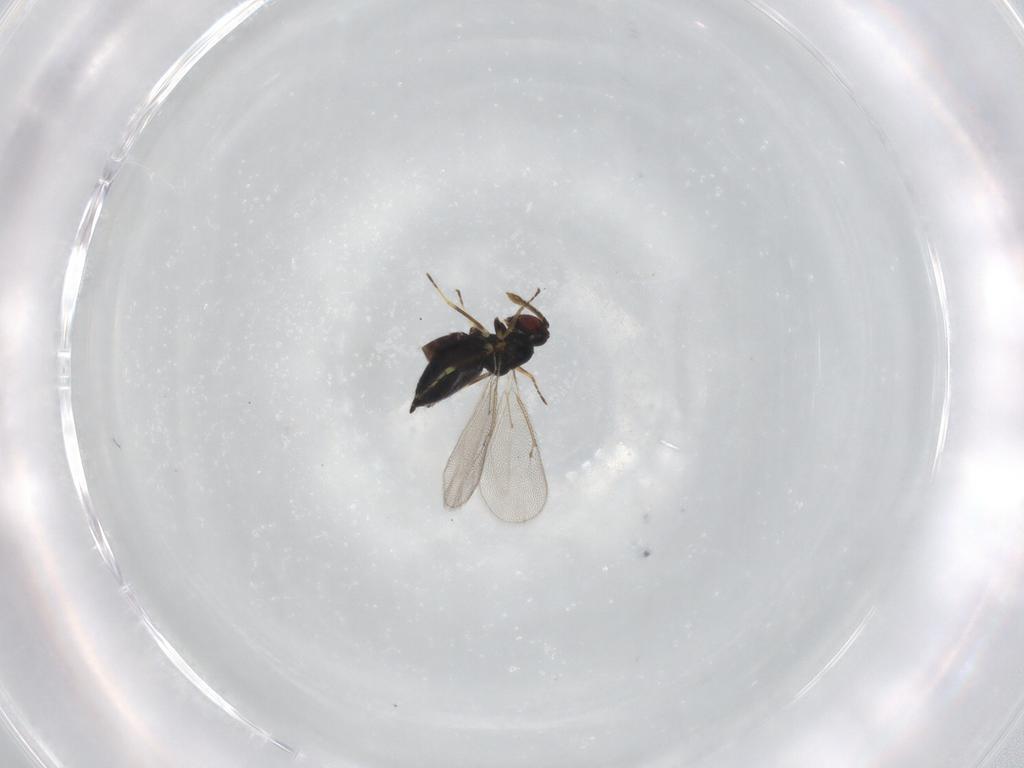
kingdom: Animalia
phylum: Arthropoda
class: Insecta
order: Hymenoptera
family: Eulophidae
